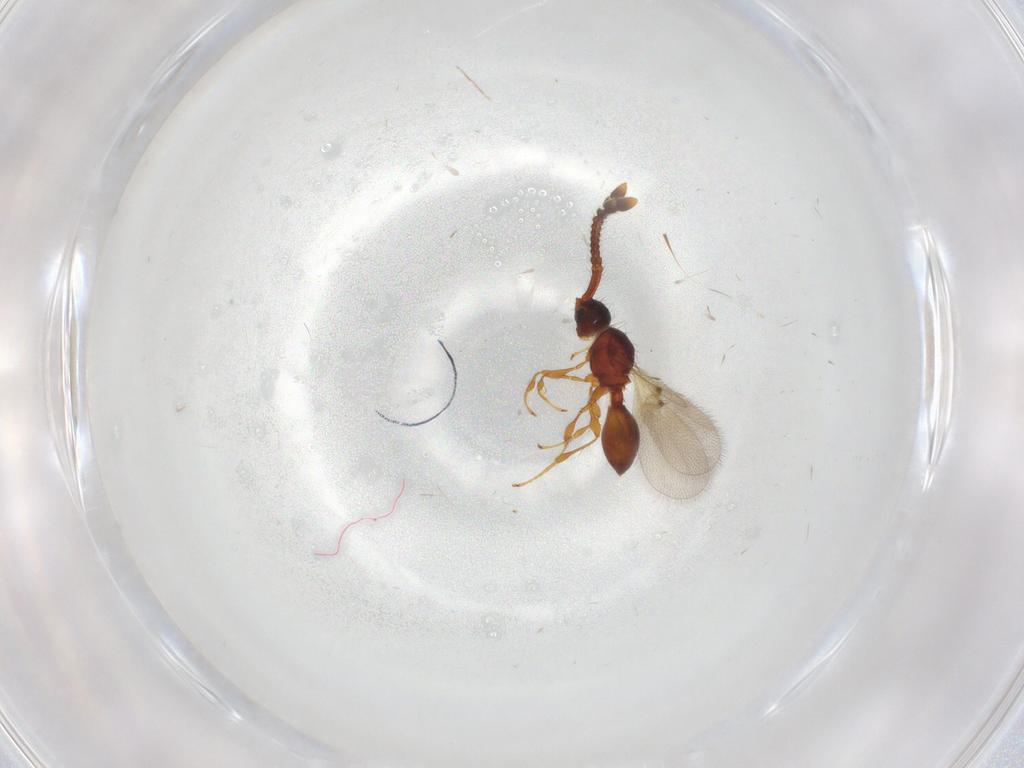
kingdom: Animalia
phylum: Arthropoda
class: Insecta
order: Hymenoptera
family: Diapriidae
